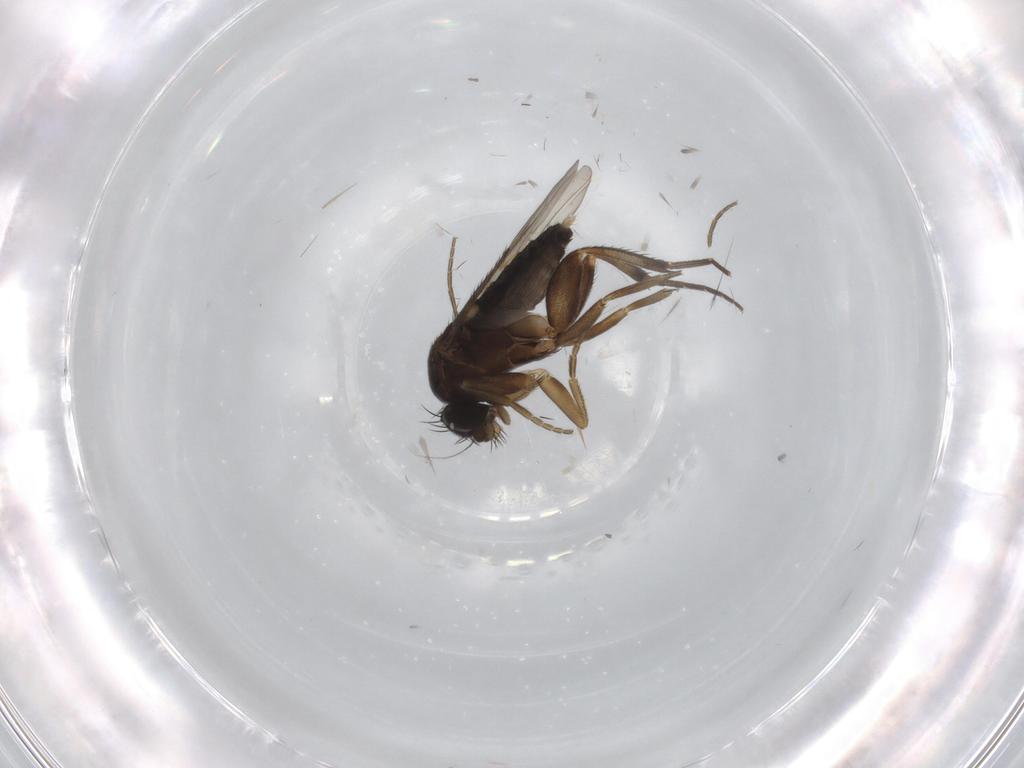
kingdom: Animalia
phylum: Arthropoda
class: Insecta
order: Diptera
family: Phoridae
